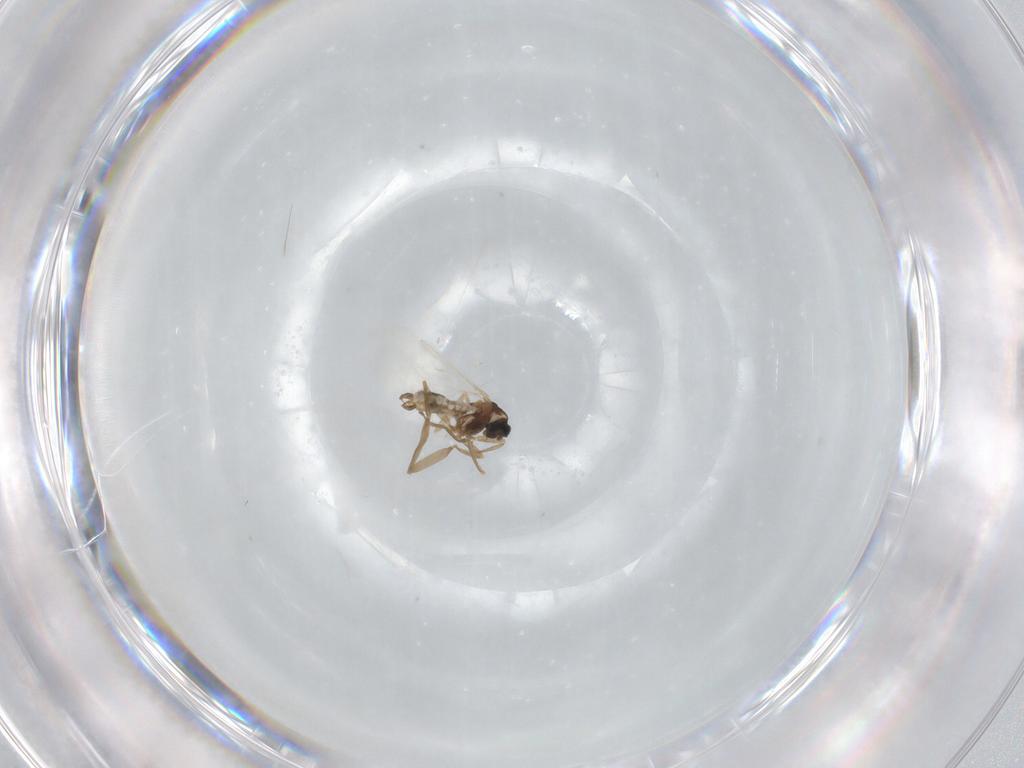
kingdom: Animalia
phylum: Arthropoda
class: Insecta
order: Diptera
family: Cecidomyiidae
